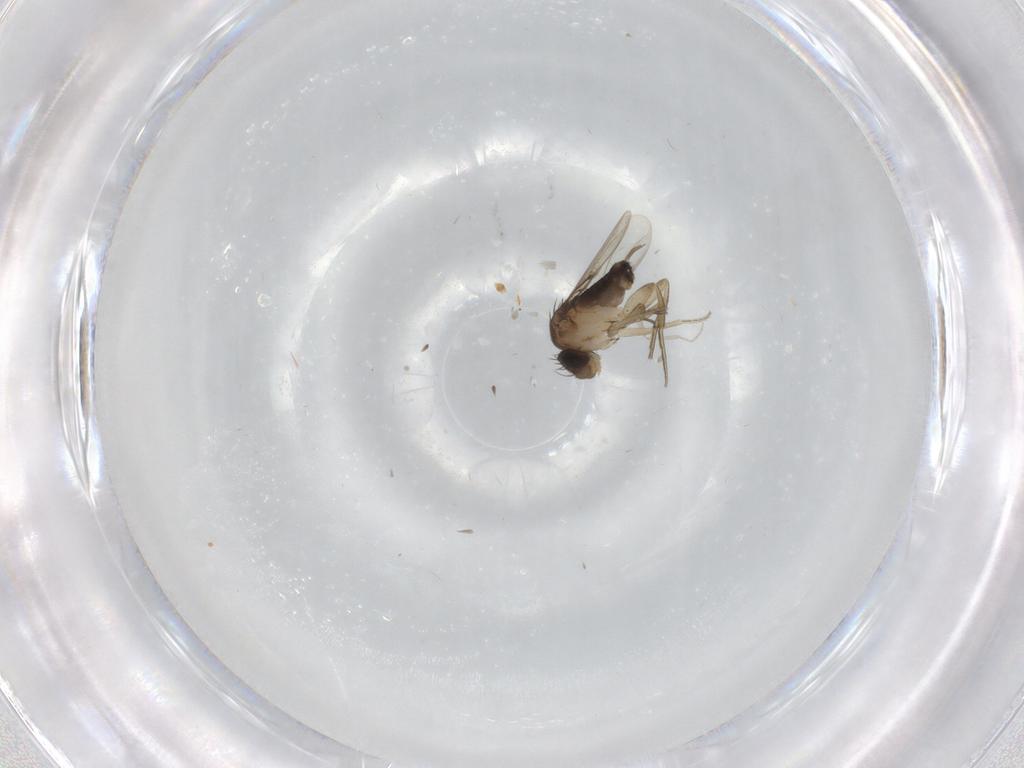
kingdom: Animalia
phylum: Arthropoda
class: Insecta
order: Diptera
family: Phoridae
